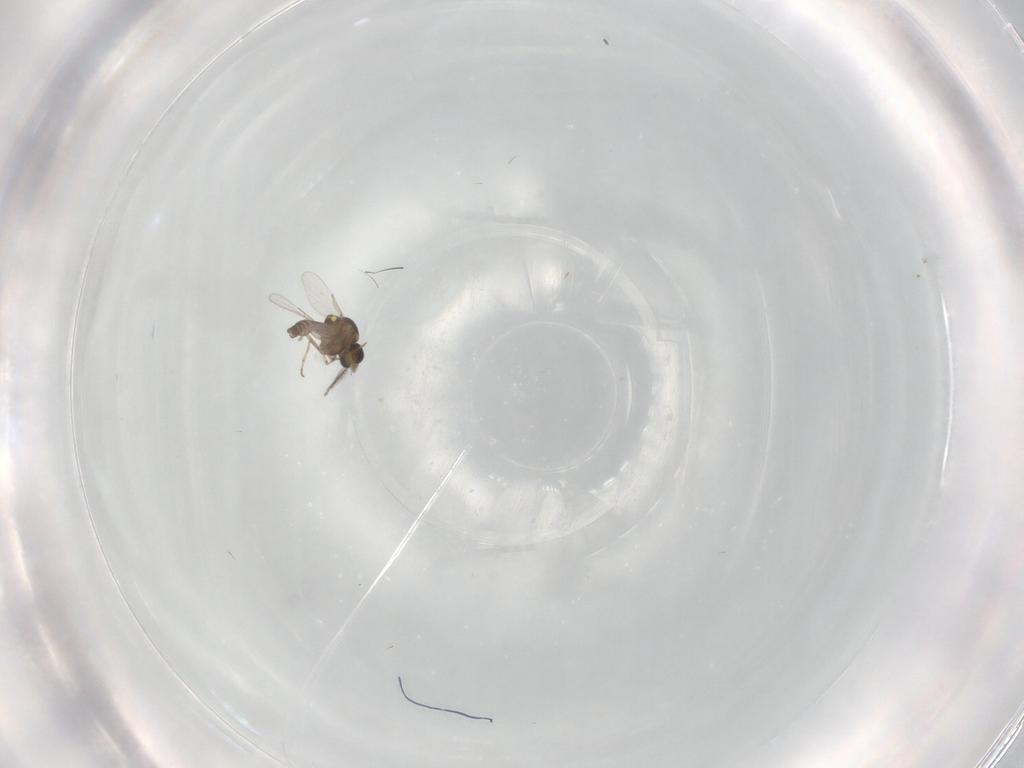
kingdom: Animalia
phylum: Arthropoda
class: Insecta
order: Diptera
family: Ceratopogonidae
